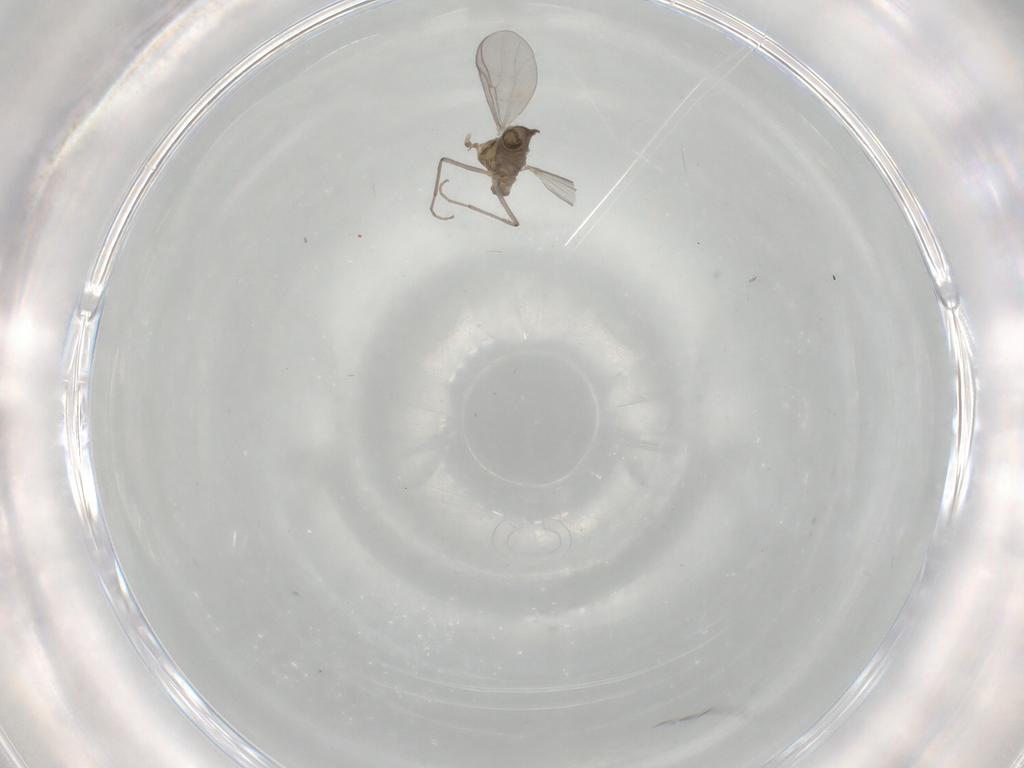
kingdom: Animalia
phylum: Arthropoda
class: Insecta
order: Diptera
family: Chironomidae
